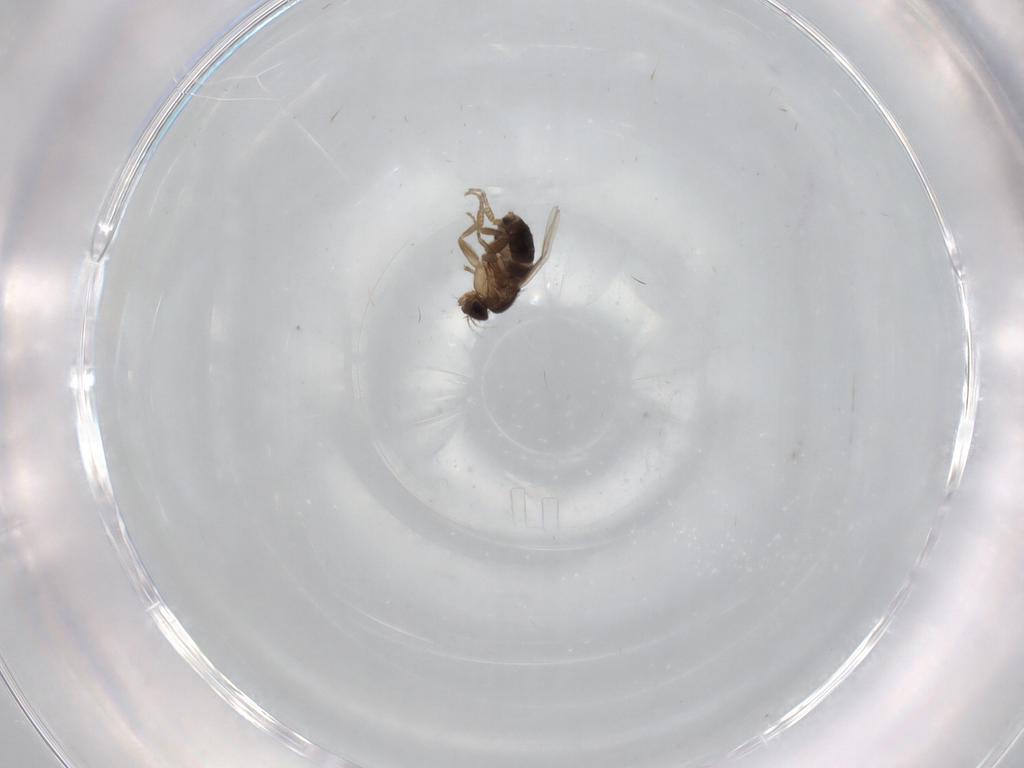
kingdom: Animalia
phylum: Arthropoda
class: Insecta
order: Diptera
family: Phoridae
